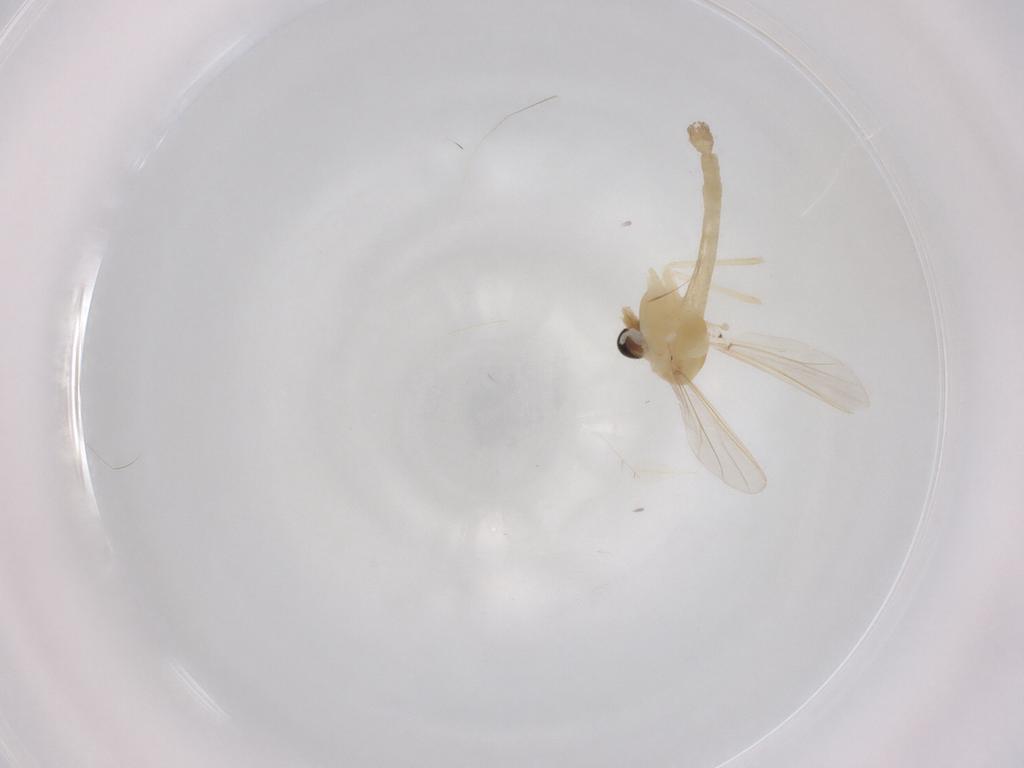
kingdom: Animalia
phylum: Arthropoda
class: Insecta
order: Diptera
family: Chironomidae
